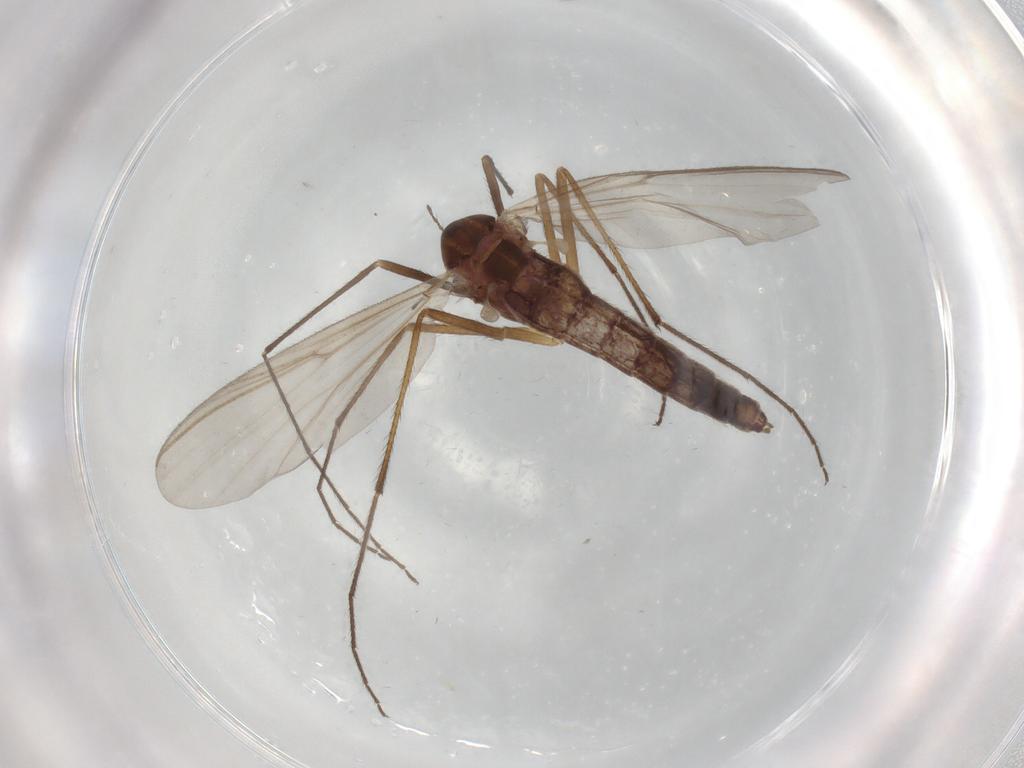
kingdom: Animalia
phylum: Arthropoda
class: Insecta
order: Diptera
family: Chironomidae
